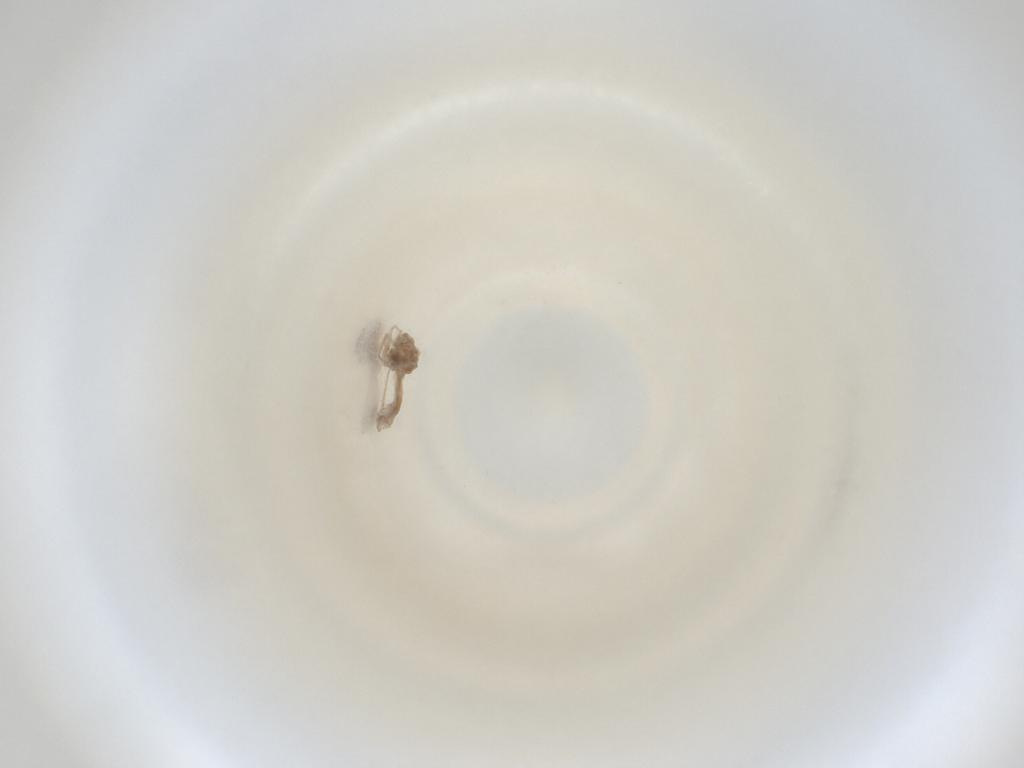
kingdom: Animalia
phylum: Arthropoda
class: Insecta
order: Diptera
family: Cecidomyiidae
